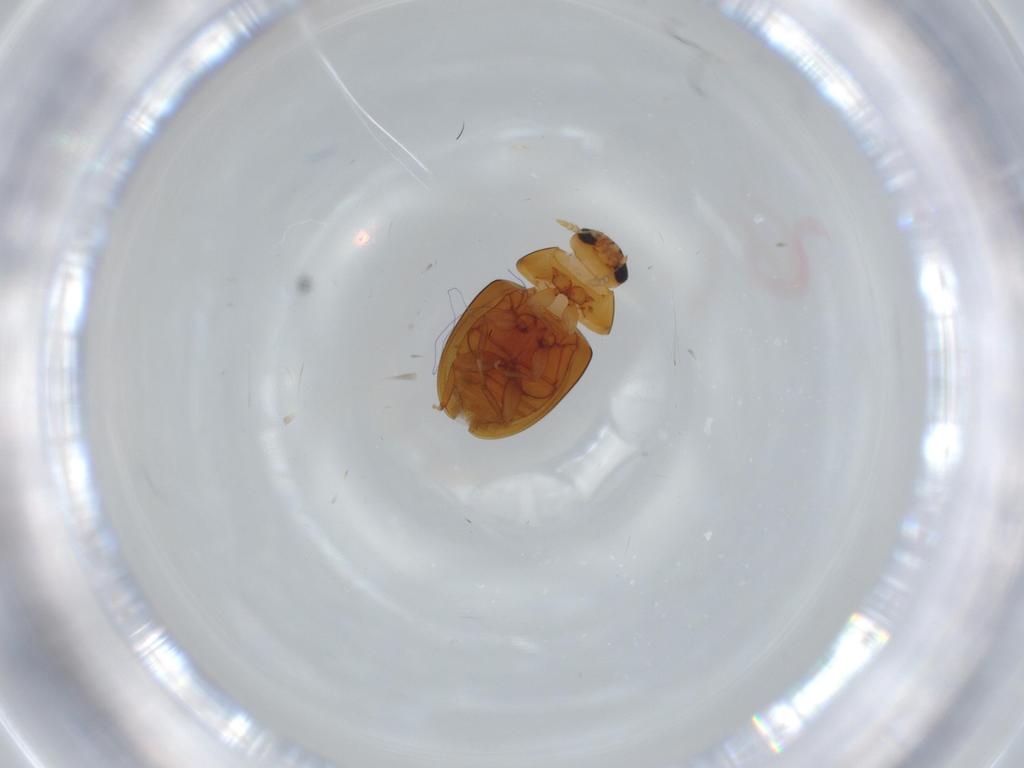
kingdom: Animalia
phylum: Arthropoda
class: Insecta
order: Coleoptera
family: Phalacridae
